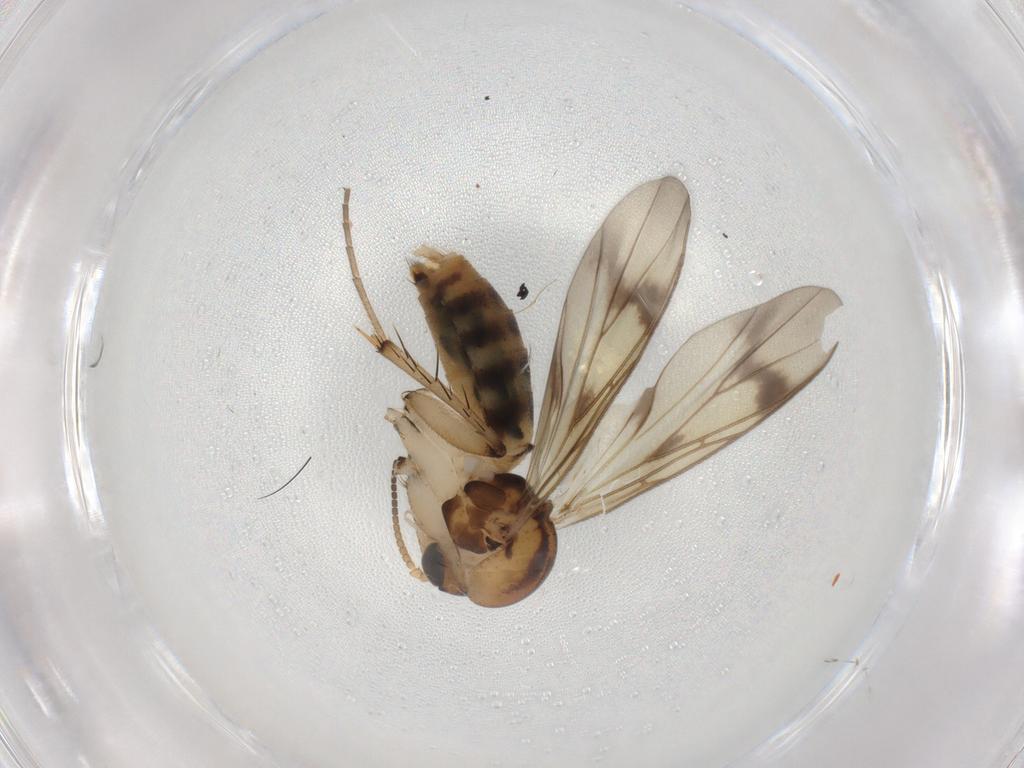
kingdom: Animalia
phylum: Arthropoda
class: Insecta
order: Diptera
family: Mycetophilidae
